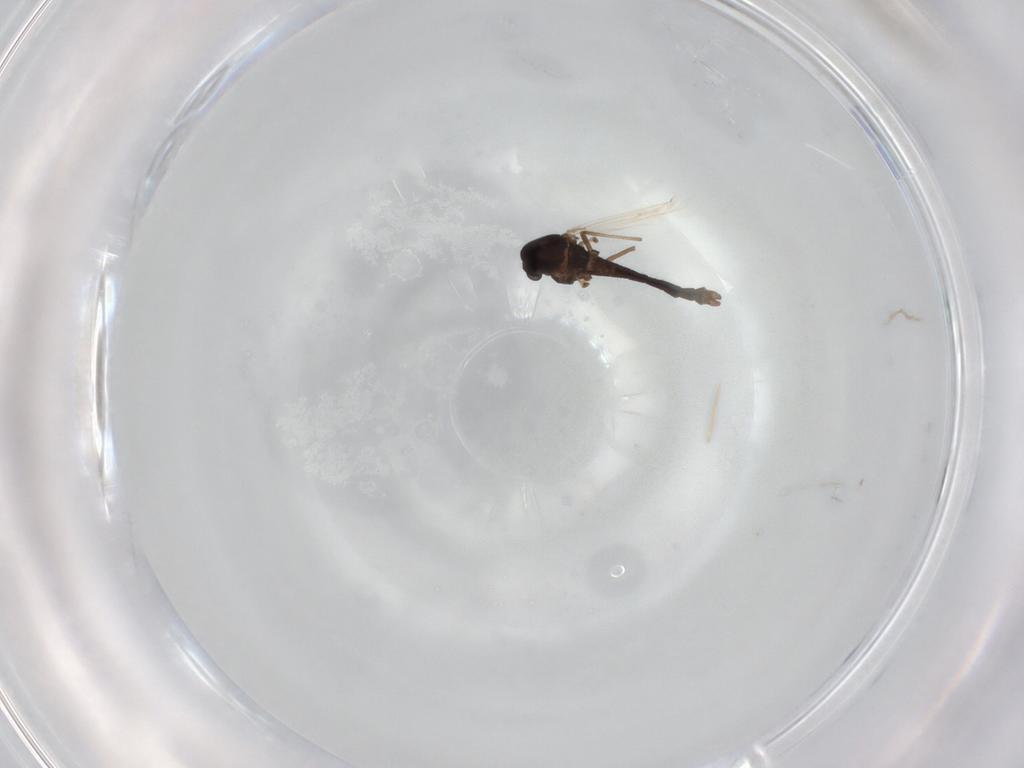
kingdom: Animalia
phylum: Arthropoda
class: Insecta
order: Diptera
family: Chironomidae
